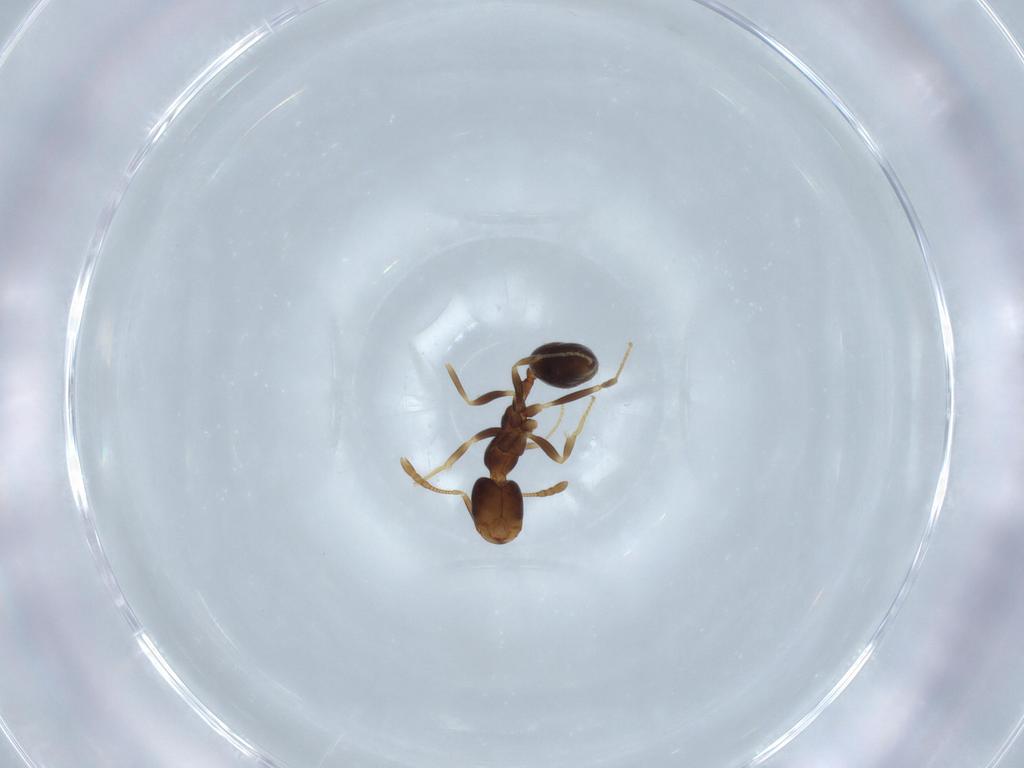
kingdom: Animalia
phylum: Arthropoda
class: Insecta
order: Hymenoptera
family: Formicidae
